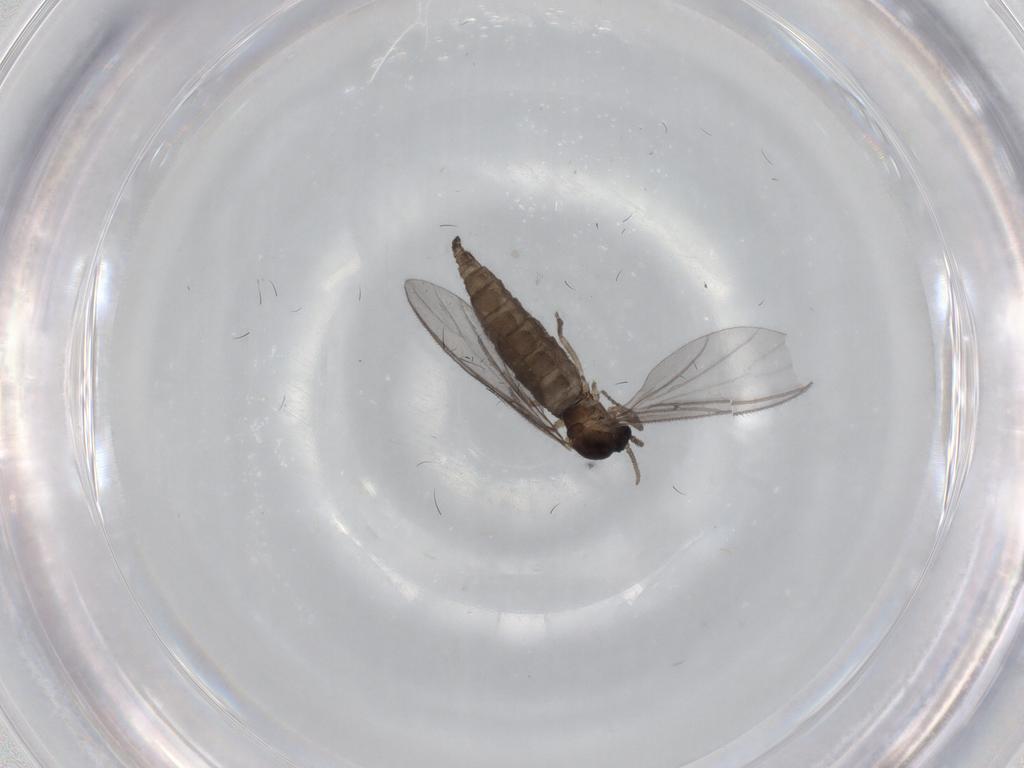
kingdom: Animalia
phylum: Arthropoda
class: Insecta
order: Diptera
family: Sciaridae
